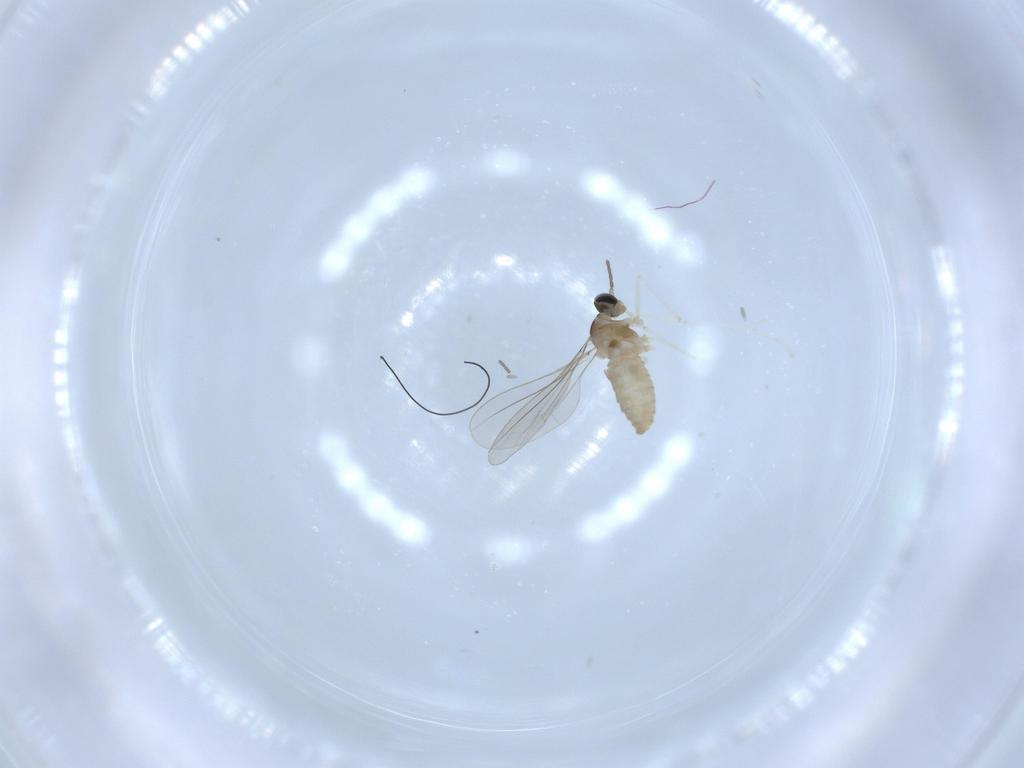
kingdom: Animalia
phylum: Arthropoda
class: Insecta
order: Diptera
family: Cecidomyiidae
